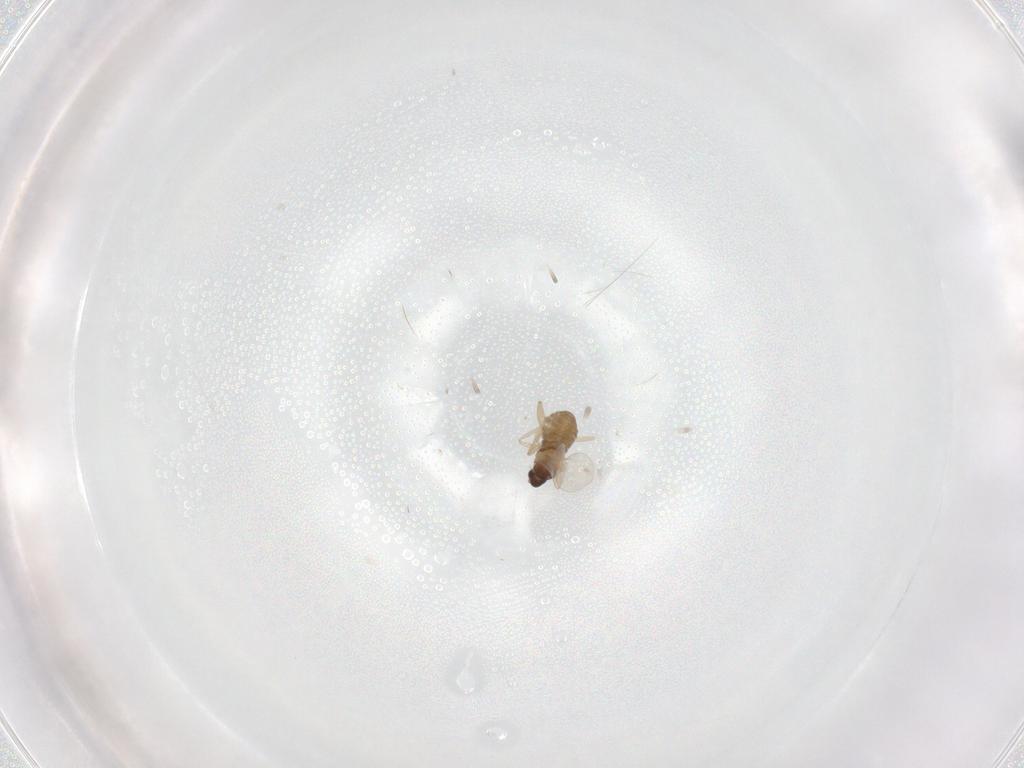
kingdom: Animalia
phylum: Arthropoda
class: Insecta
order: Diptera
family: Cecidomyiidae
